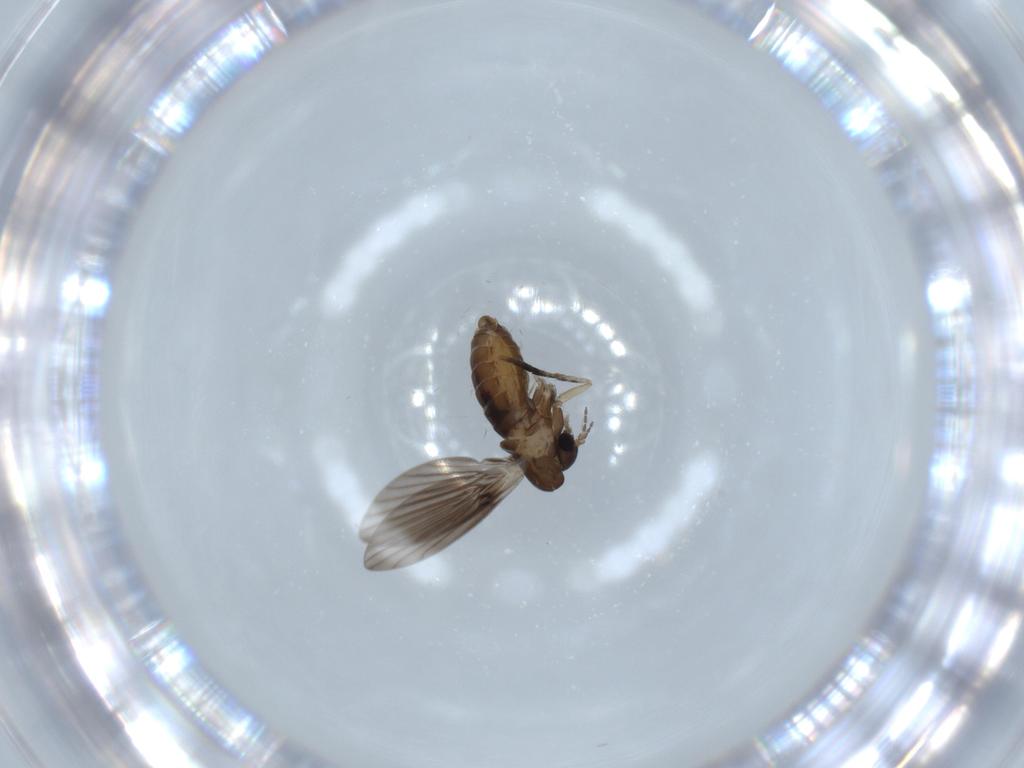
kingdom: Animalia
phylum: Arthropoda
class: Insecta
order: Diptera
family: Psychodidae
